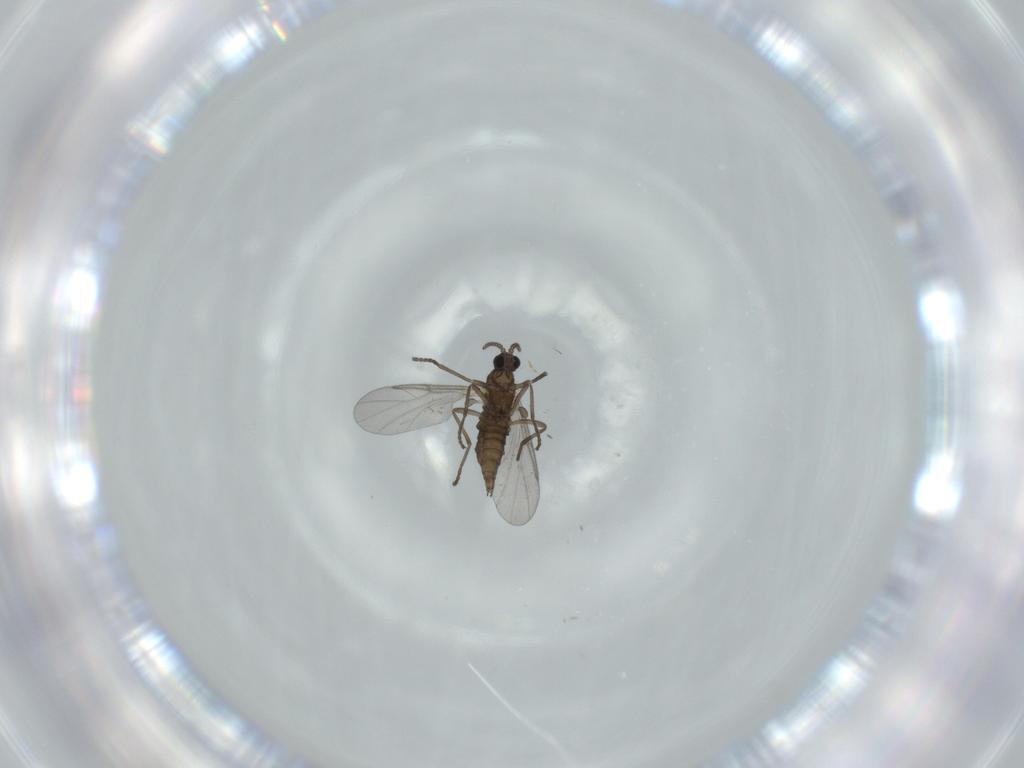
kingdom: Animalia
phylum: Arthropoda
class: Insecta
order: Diptera
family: Cecidomyiidae
